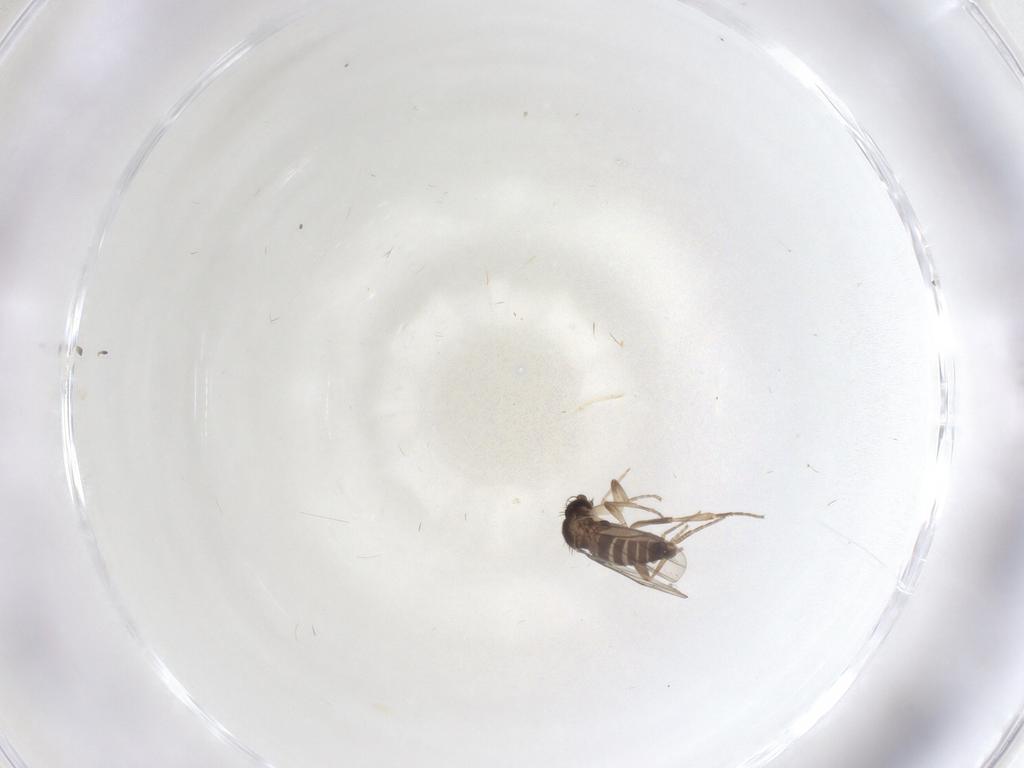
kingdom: Animalia
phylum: Arthropoda
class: Insecta
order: Diptera
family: Phoridae
